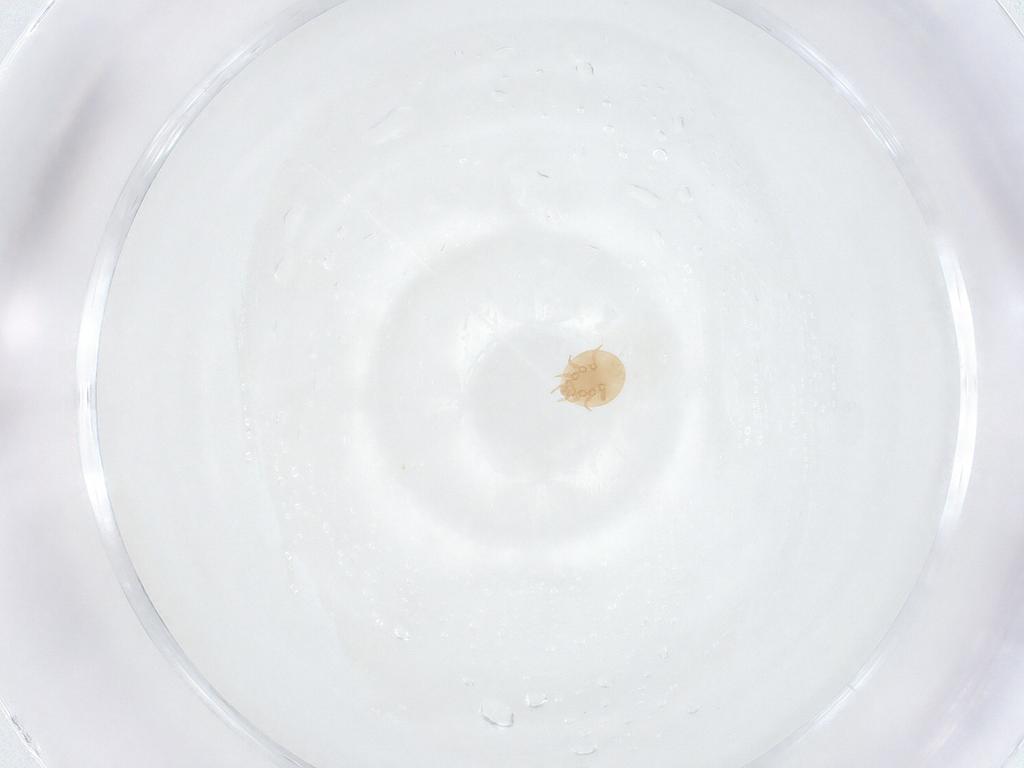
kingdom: Animalia
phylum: Arthropoda
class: Arachnida
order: Mesostigmata
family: Trematuridae
